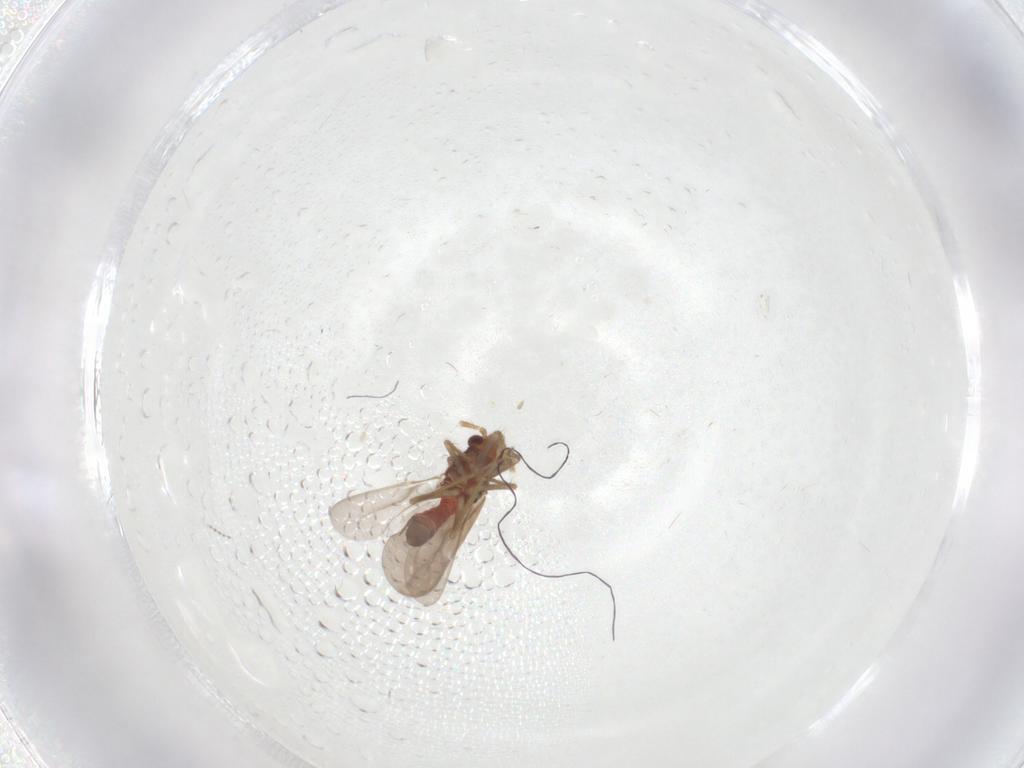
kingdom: Animalia
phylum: Arthropoda
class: Insecta
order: Hemiptera
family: Ceratocombidae
